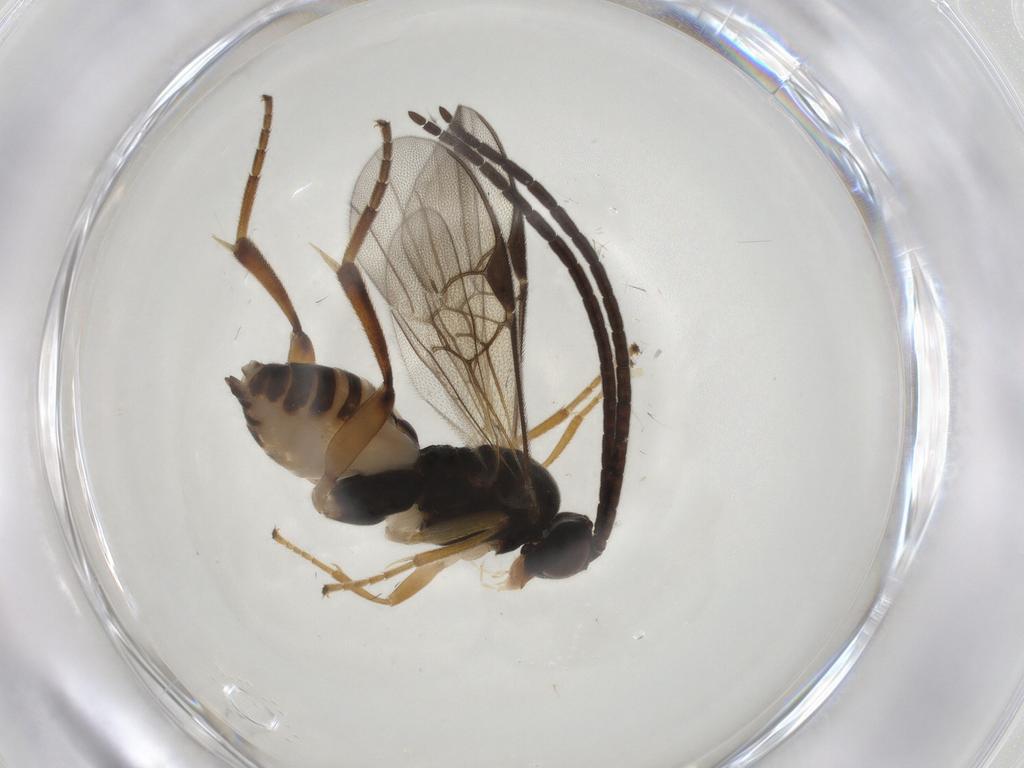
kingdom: Animalia
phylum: Arthropoda
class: Insecta
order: Hymenoptera
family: Braconidae
